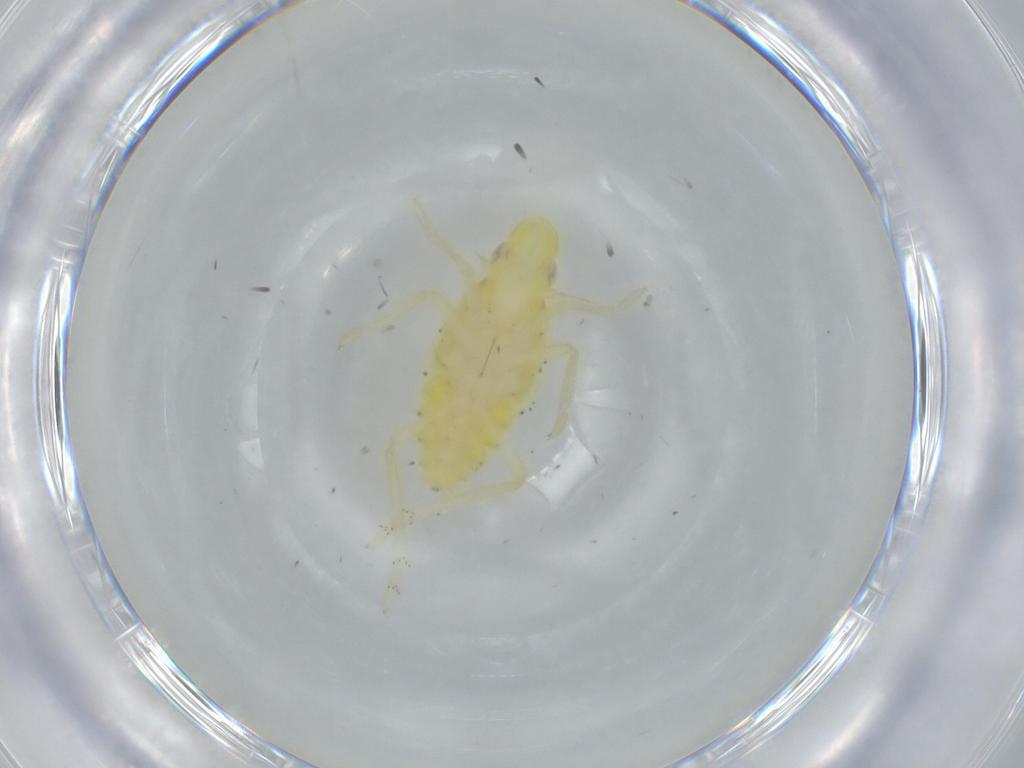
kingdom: Animalia
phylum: Arthropoda
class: Insecta
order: Hemiptera
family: Tropiduchidae
